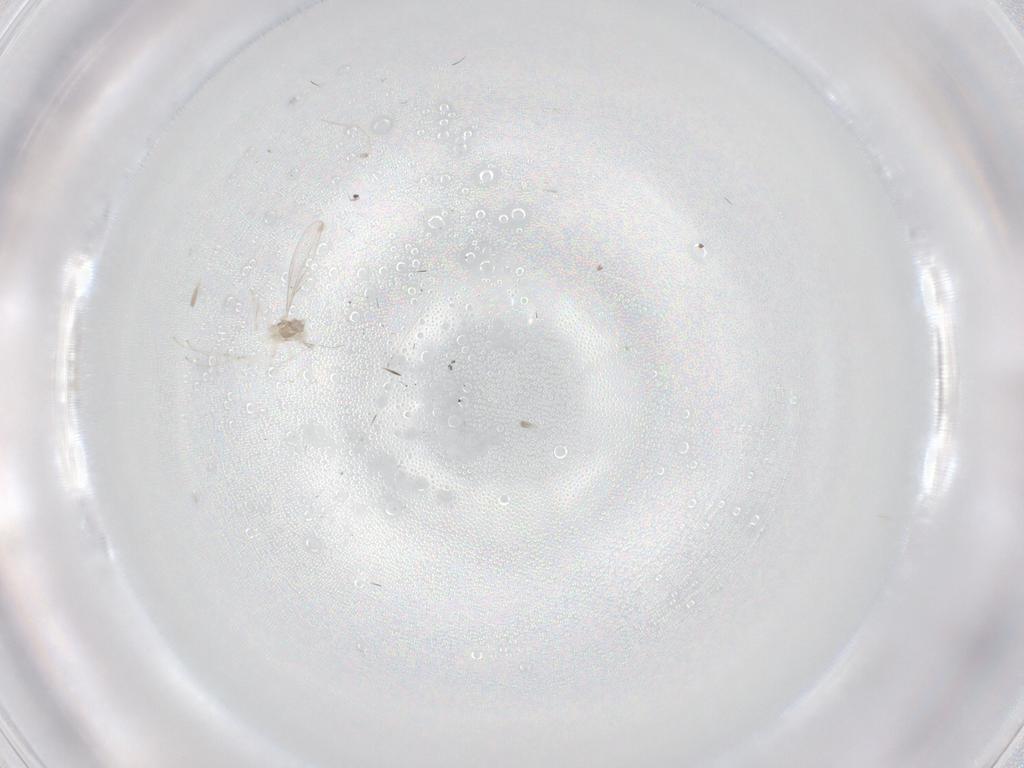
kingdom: Animalia
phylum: Arthropoda
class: Insecta
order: Diptera
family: Cecidomyiidae
